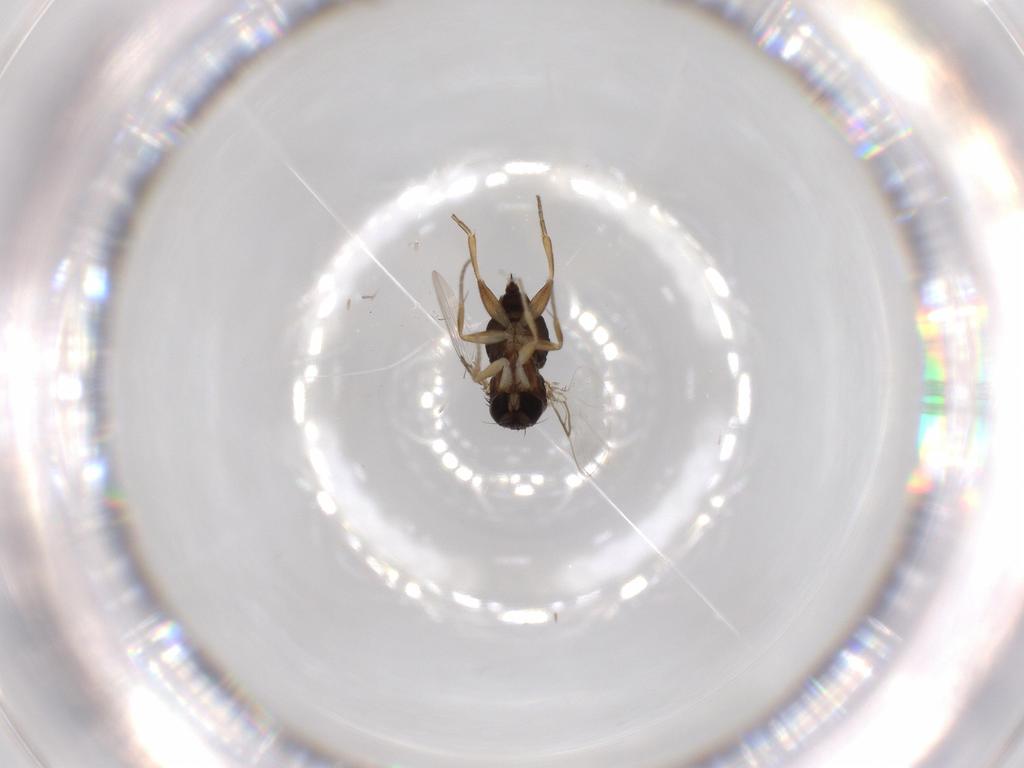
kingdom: Animalia
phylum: Arthropoda
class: Insecta
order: Diptera
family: Phoridae
